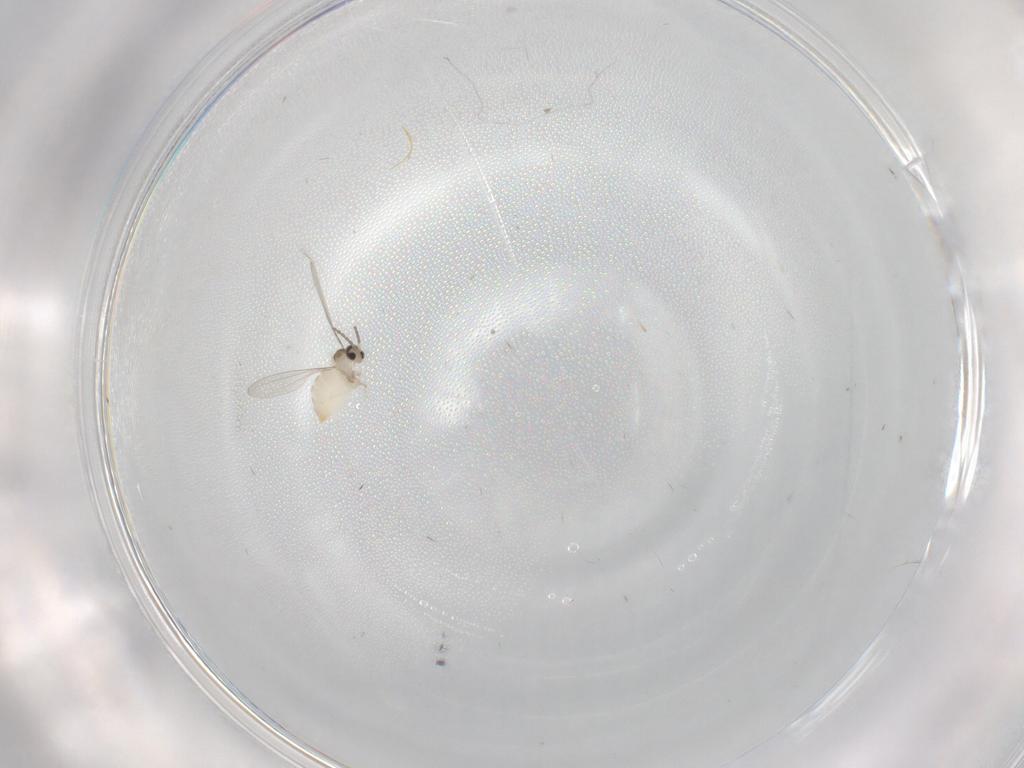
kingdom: Animalia
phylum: Arthropoda
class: Insecta
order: Diptera
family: Cecidomyiidae
